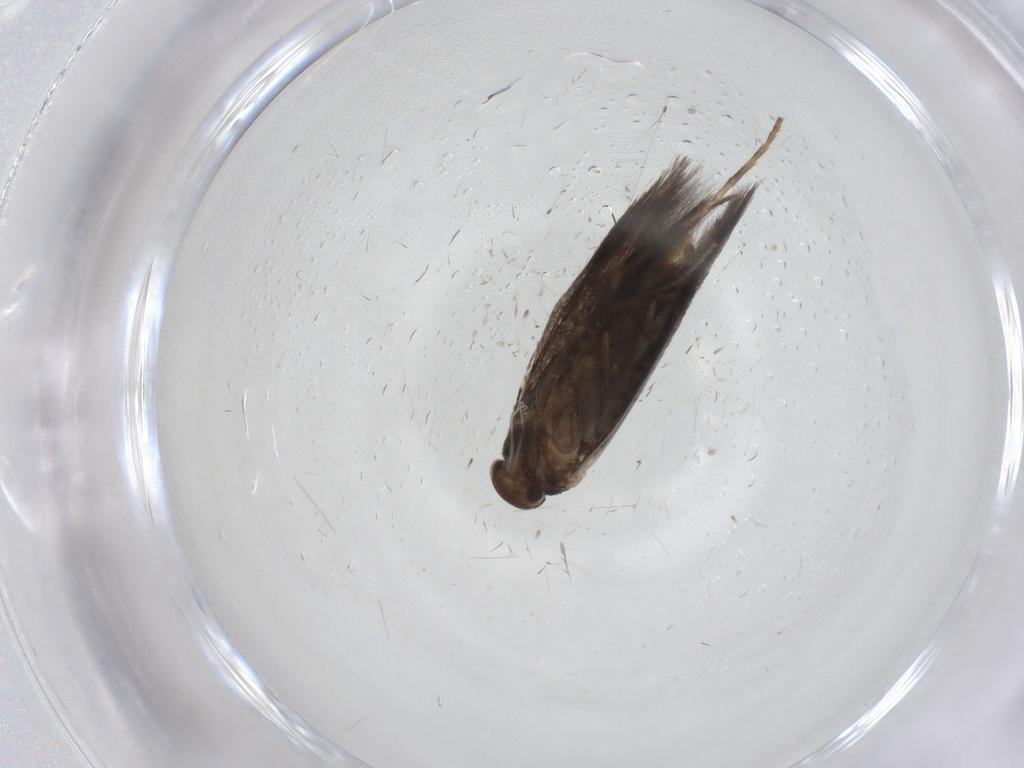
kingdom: Animalia
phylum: Arthropoda
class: Insecta
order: Lepidoptera
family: Elachistidae
